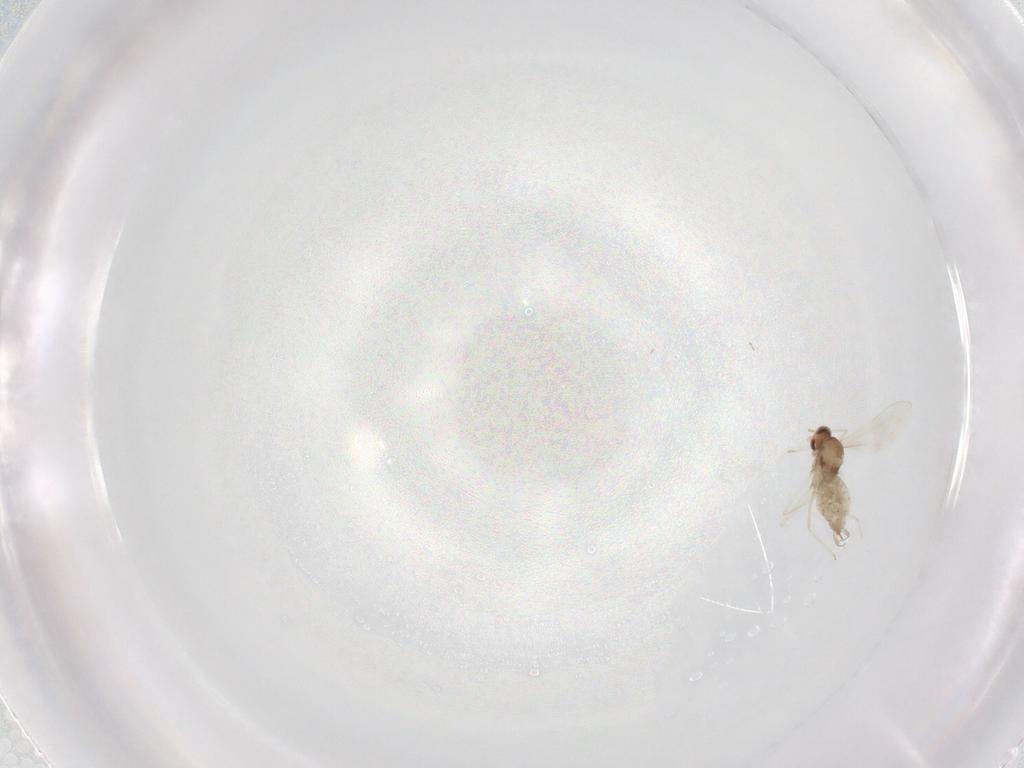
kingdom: Animalia
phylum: Arthropoda
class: Insecta
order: Diptera
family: Cecidomyiidae
